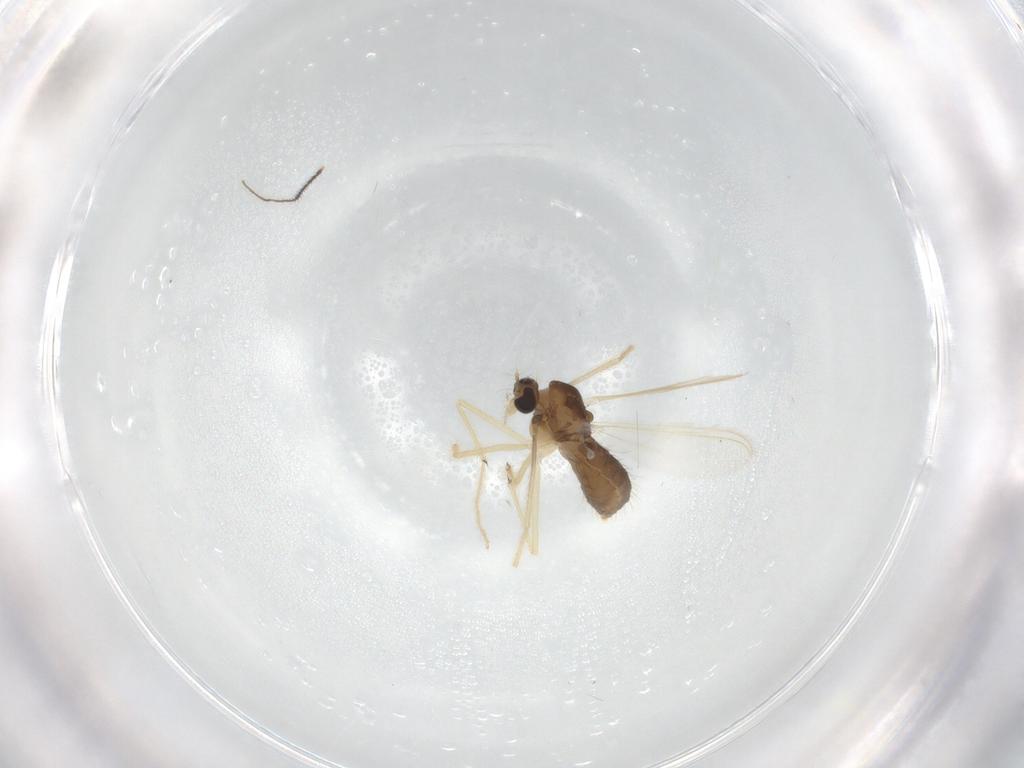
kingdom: Animalia
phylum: Arthropoda
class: Insecta
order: Diptera
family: Chironomidae
